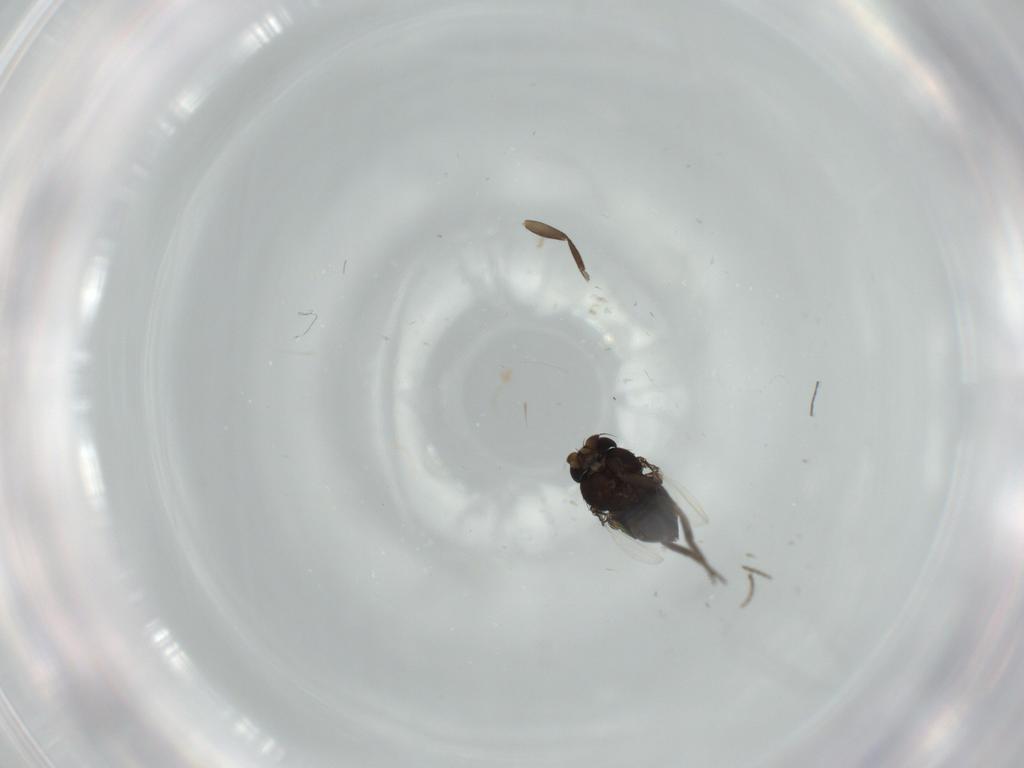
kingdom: Animalia
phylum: Arthropoda
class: Insecta
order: Diptera
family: Phoridae
